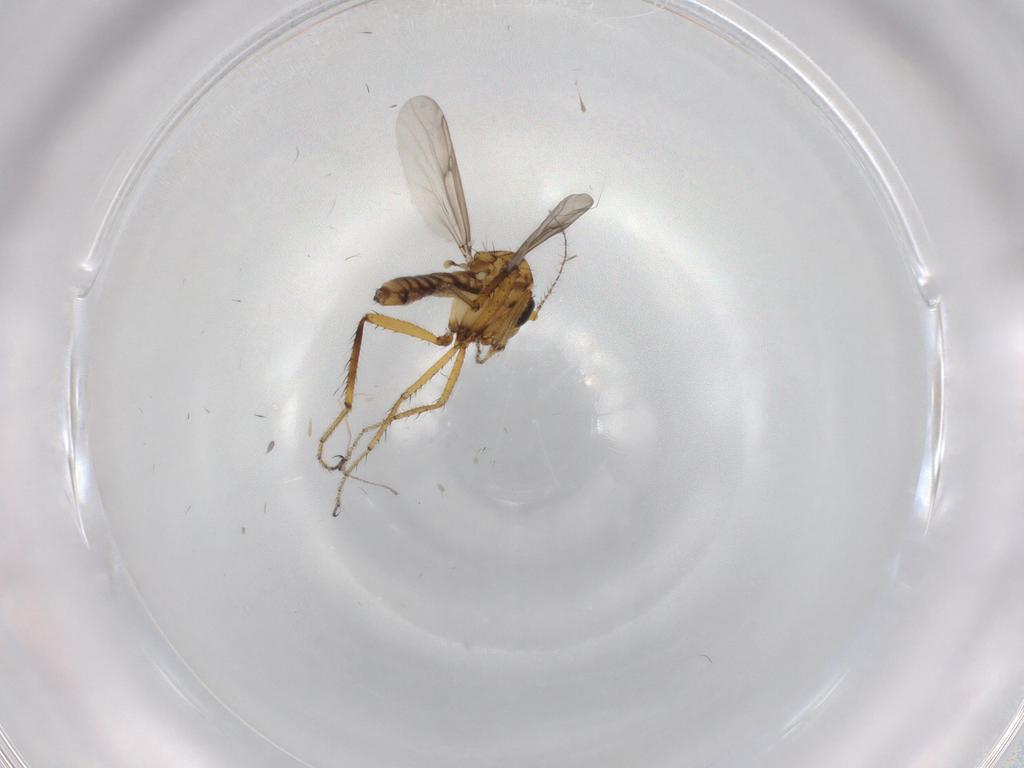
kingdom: Animalia
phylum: Arthropoda
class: Insecta
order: Diptera
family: Ceratopogonidae
